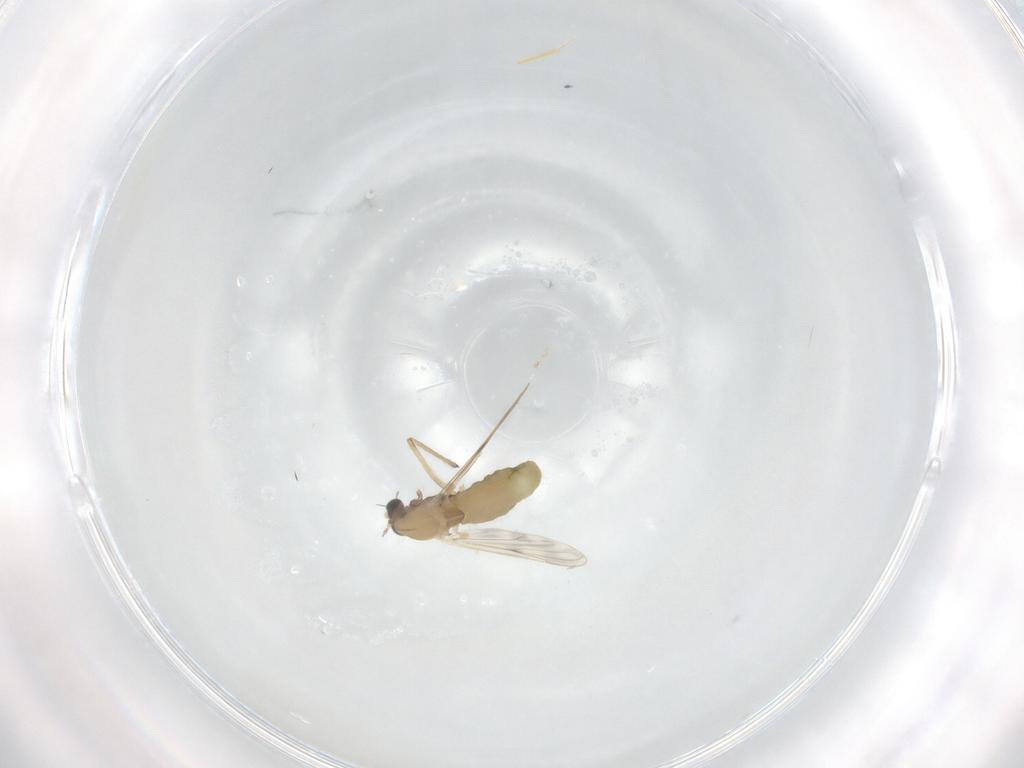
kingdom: Animalia
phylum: Arthropoda
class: Insecta
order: Diptera
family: Chironomidae
